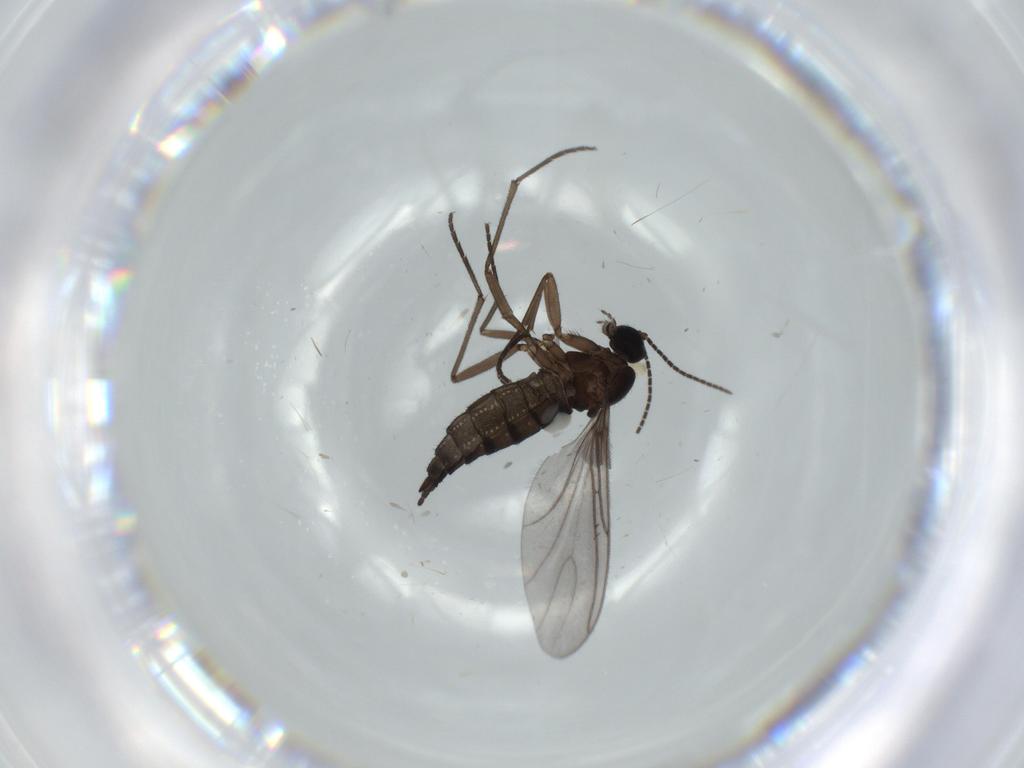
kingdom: Animalia
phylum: Arthropoda
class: Insecta
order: Diptera
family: Sciaridae
